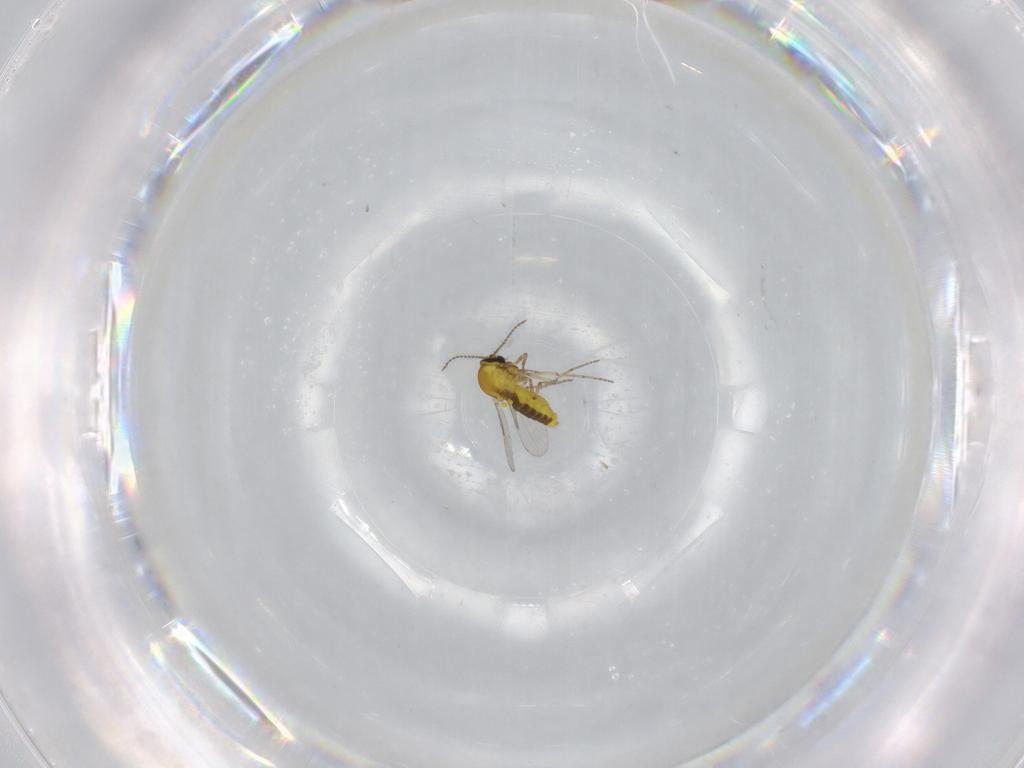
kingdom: Animalia
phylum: Arthropoda
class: Insecta
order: Diptera
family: Ceratopogonidae
